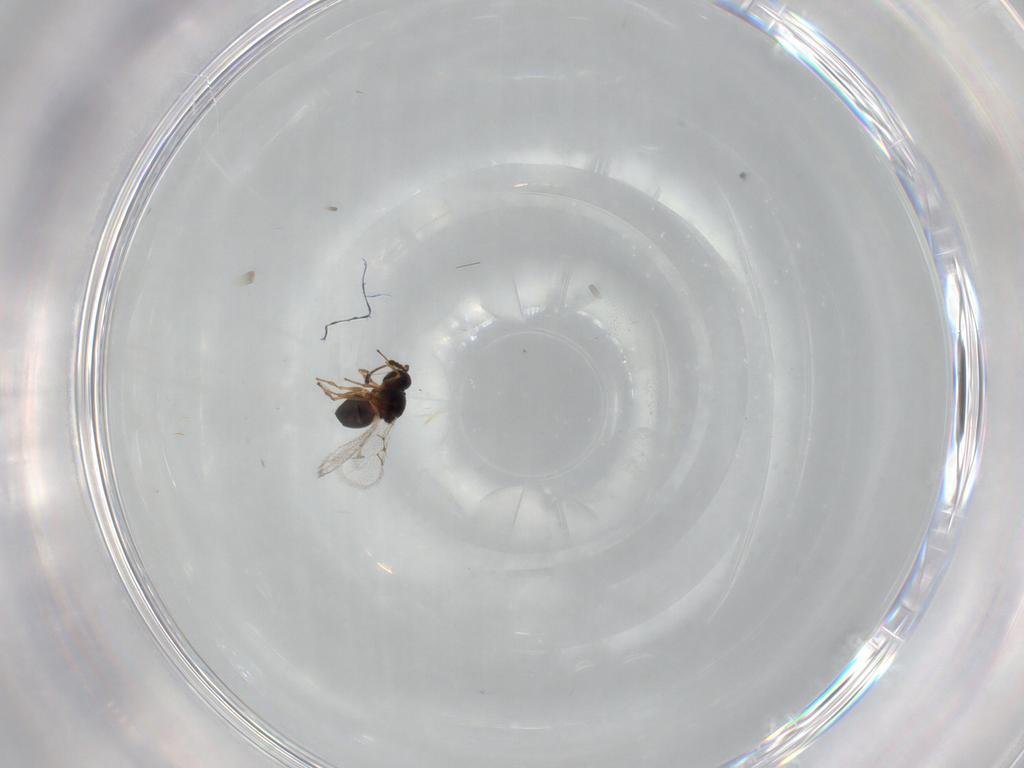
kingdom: Animalia
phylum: Arthropoda
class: Insecta
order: Hymenoptera
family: Figitidae
